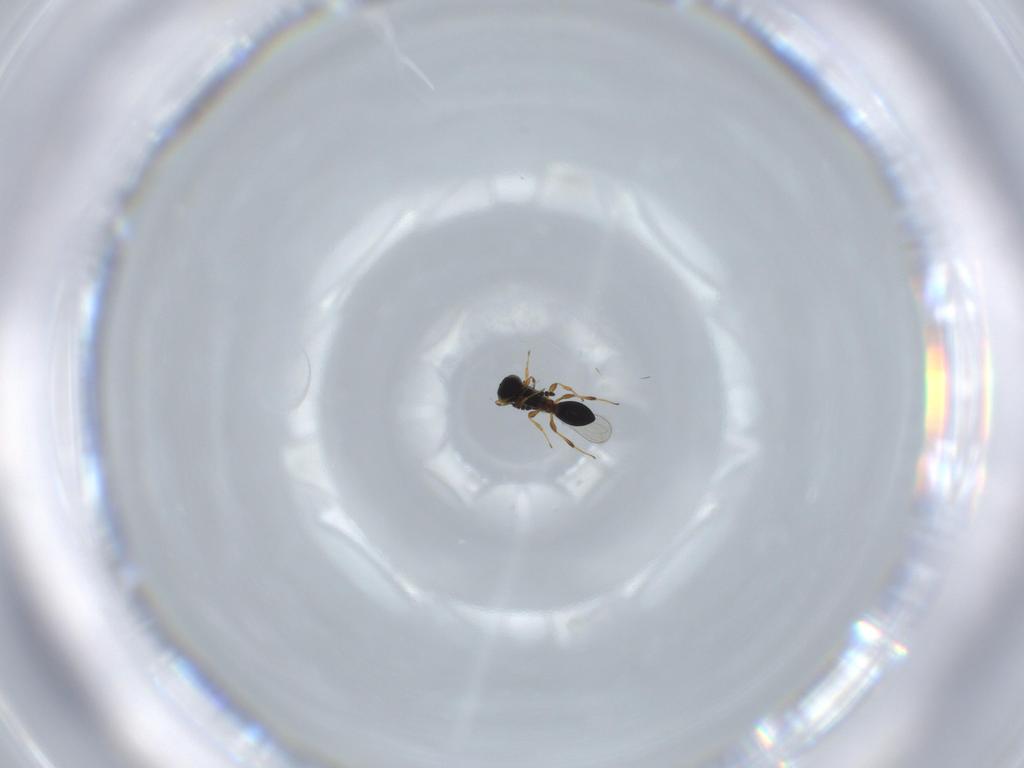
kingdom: Animalia
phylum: Arthropoda
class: Insecta
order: Hymenoptera
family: Platygastridae
